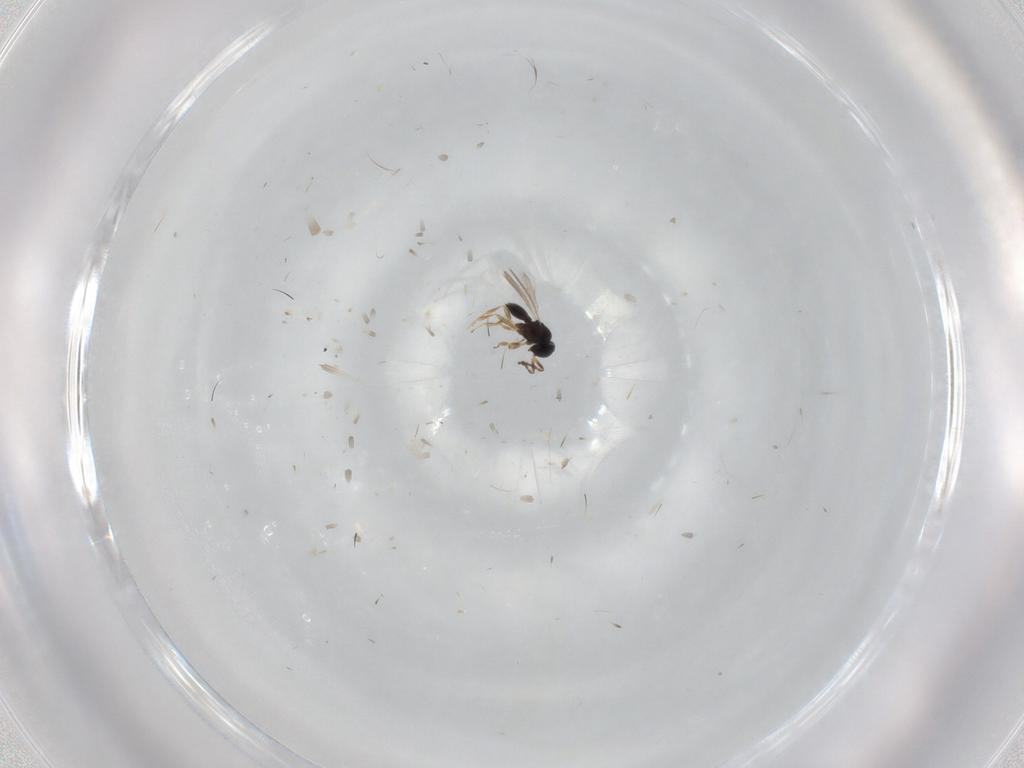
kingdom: Animalia
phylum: Arthropoda
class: Insecta
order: Hymenoptera
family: Scelionidae
